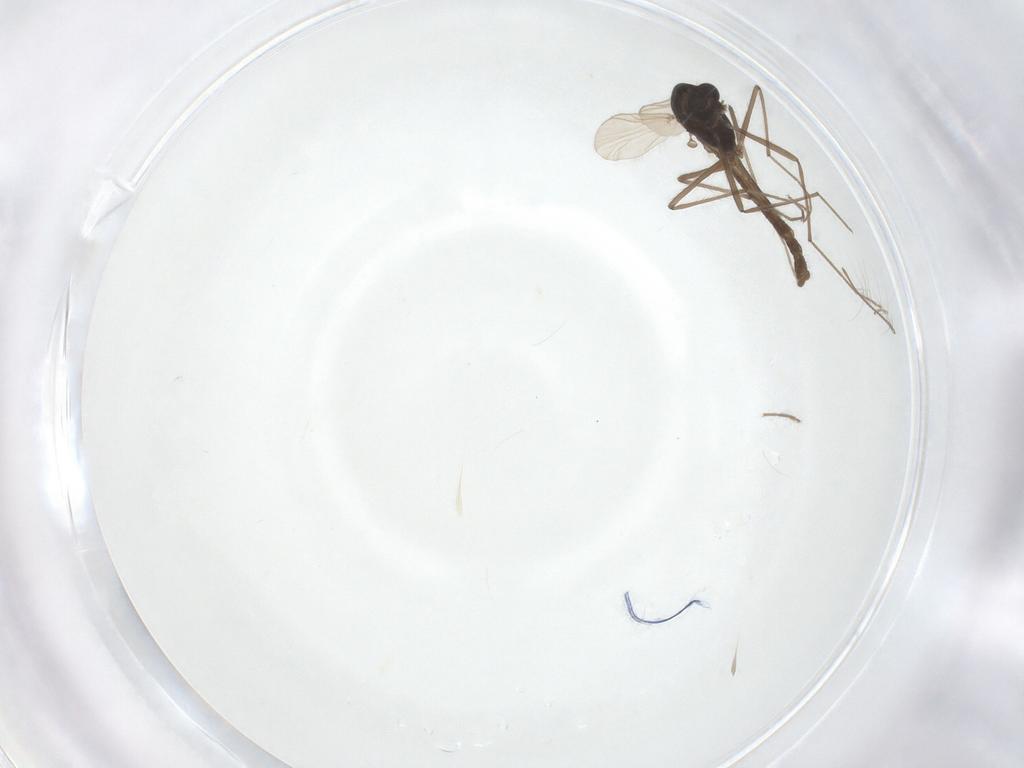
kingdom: Animalia
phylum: Arthropoda
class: Insecta
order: Diptera
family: Chironomidae
